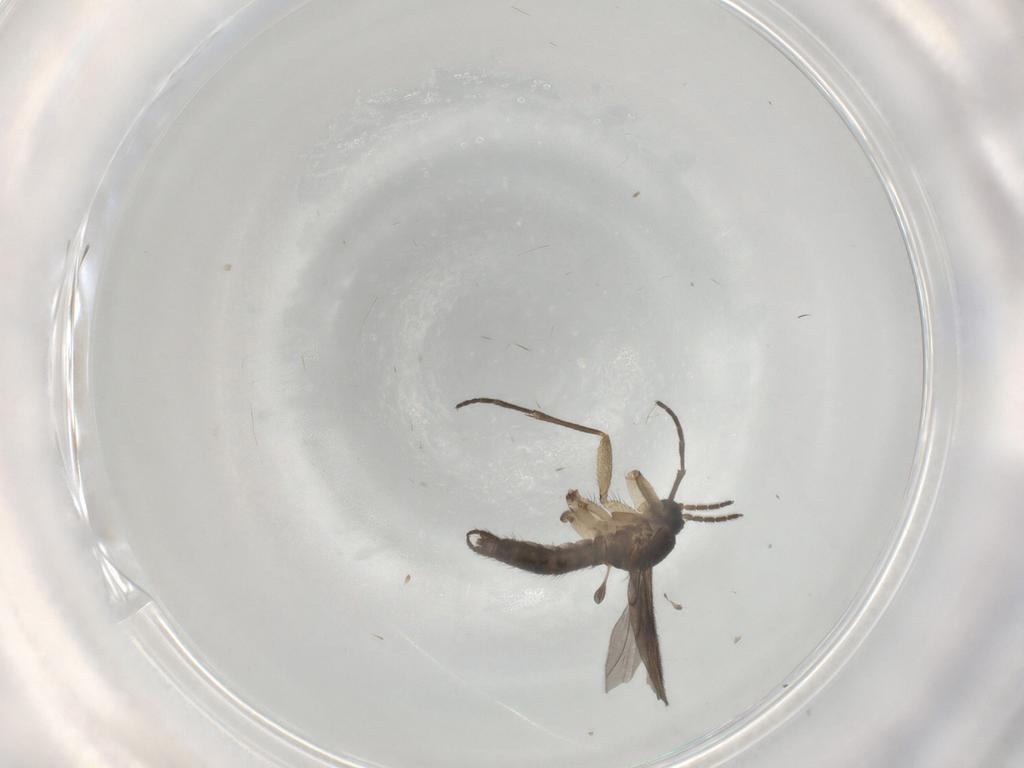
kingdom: Animalia
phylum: Arthropoda
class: Insecta
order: Diptera
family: Sciaridae
